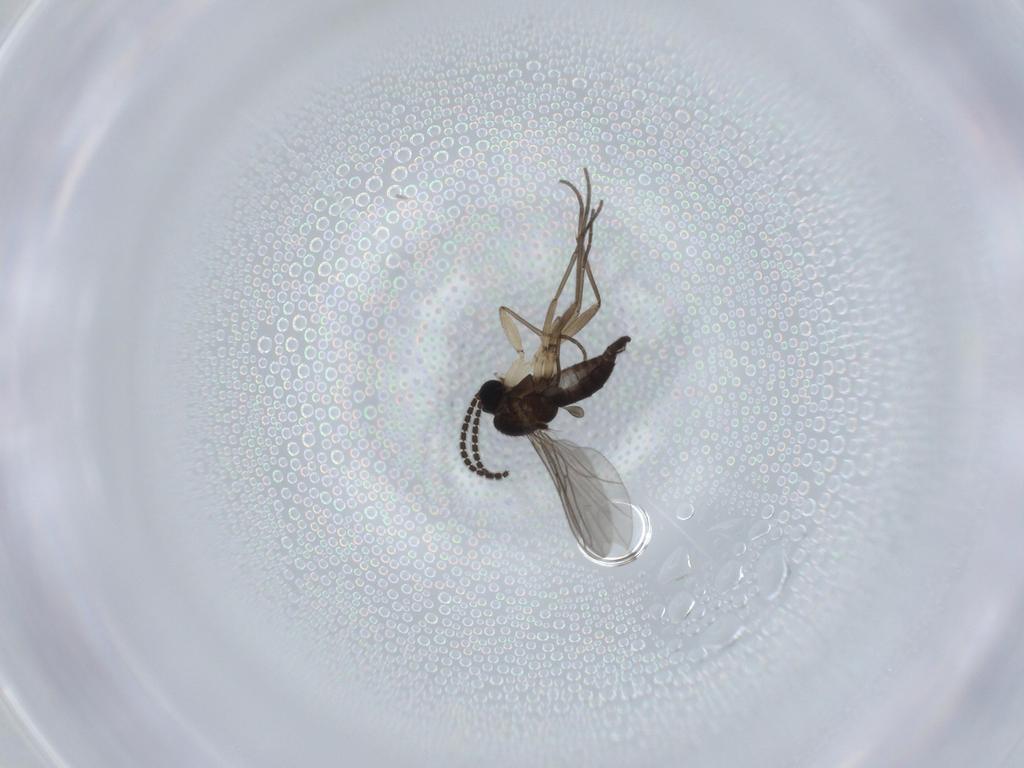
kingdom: Animalia
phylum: Arthropoda
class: Insecta
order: Diptera
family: Sciaridae
